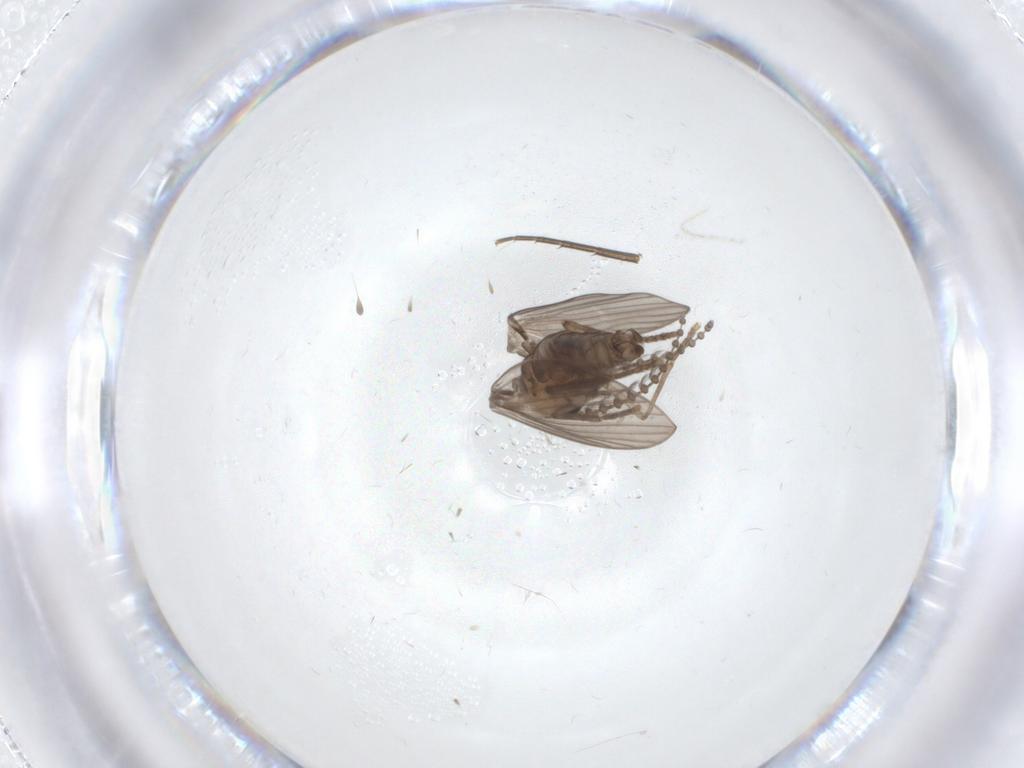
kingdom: Animalia
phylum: Arthropoda
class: Insecta
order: Diptera
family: Psychodidae
